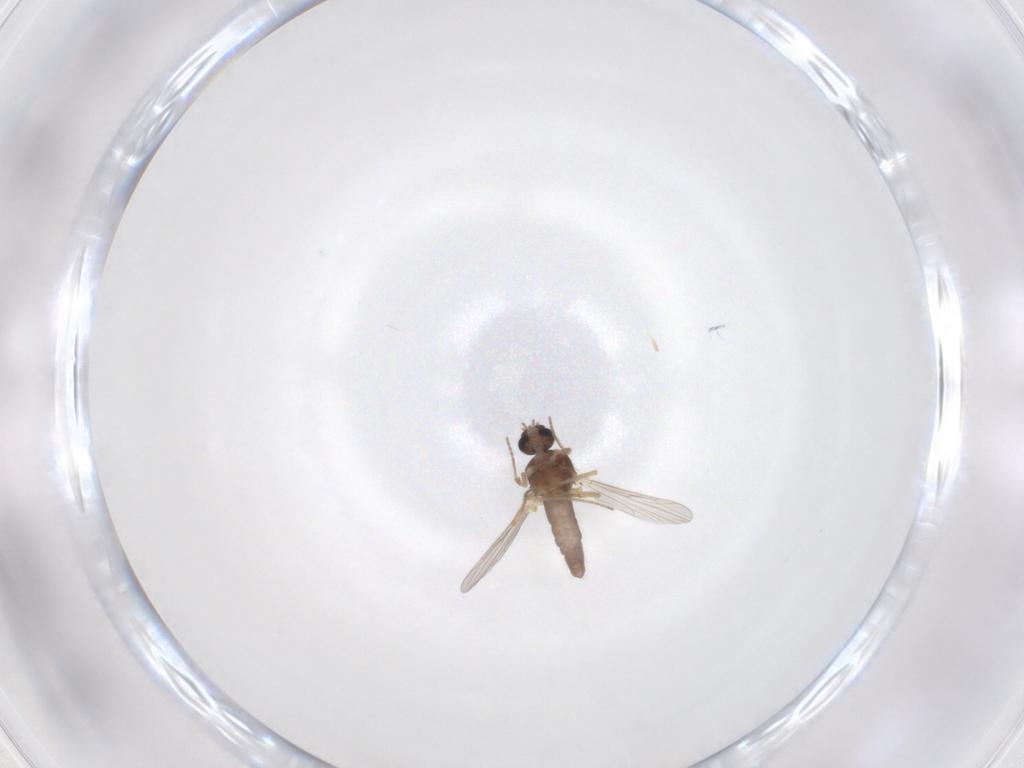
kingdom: Animalia
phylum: Arthropoda
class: Insecta
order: Diptera
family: Ceratopogonidae
